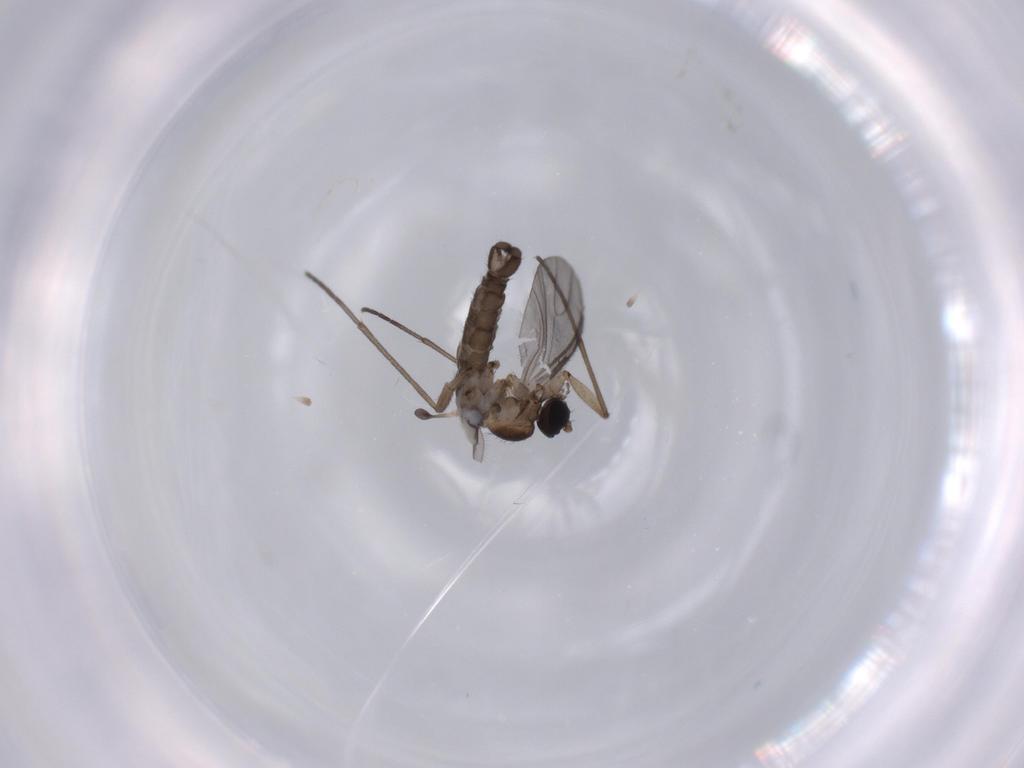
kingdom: Animalia
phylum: Arthropoda
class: Insecta
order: Diptera
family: Sciaridae
